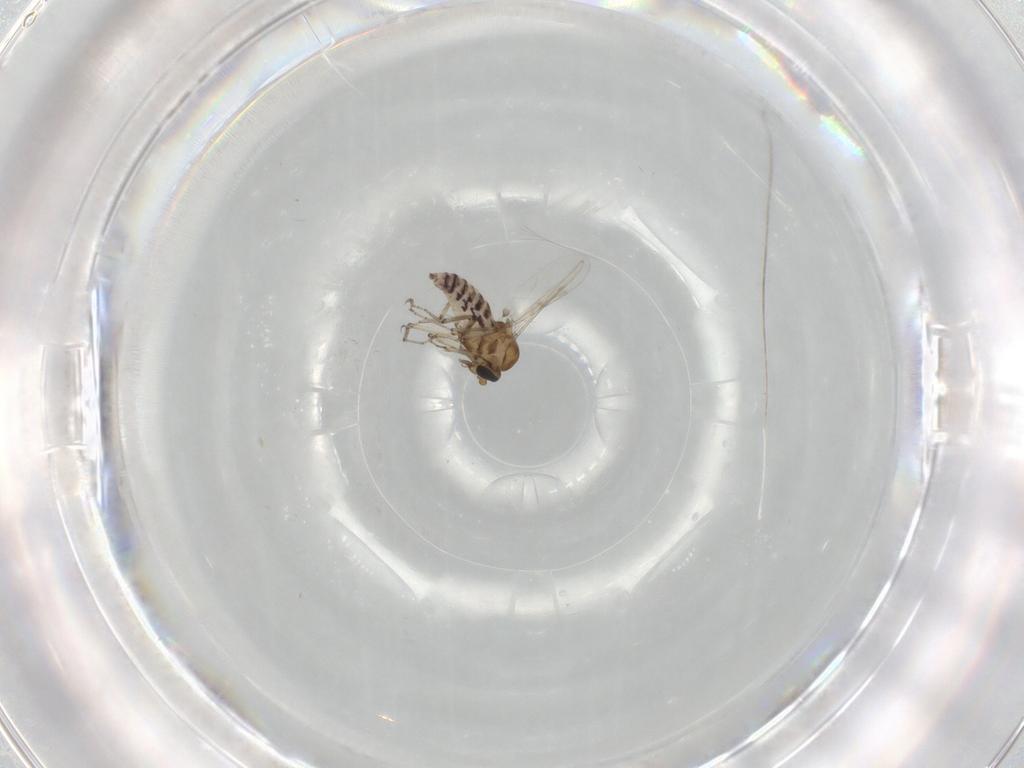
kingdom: Animalia
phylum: Arthropoda
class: Insecta
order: Diptera
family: Ceratopogonidae
